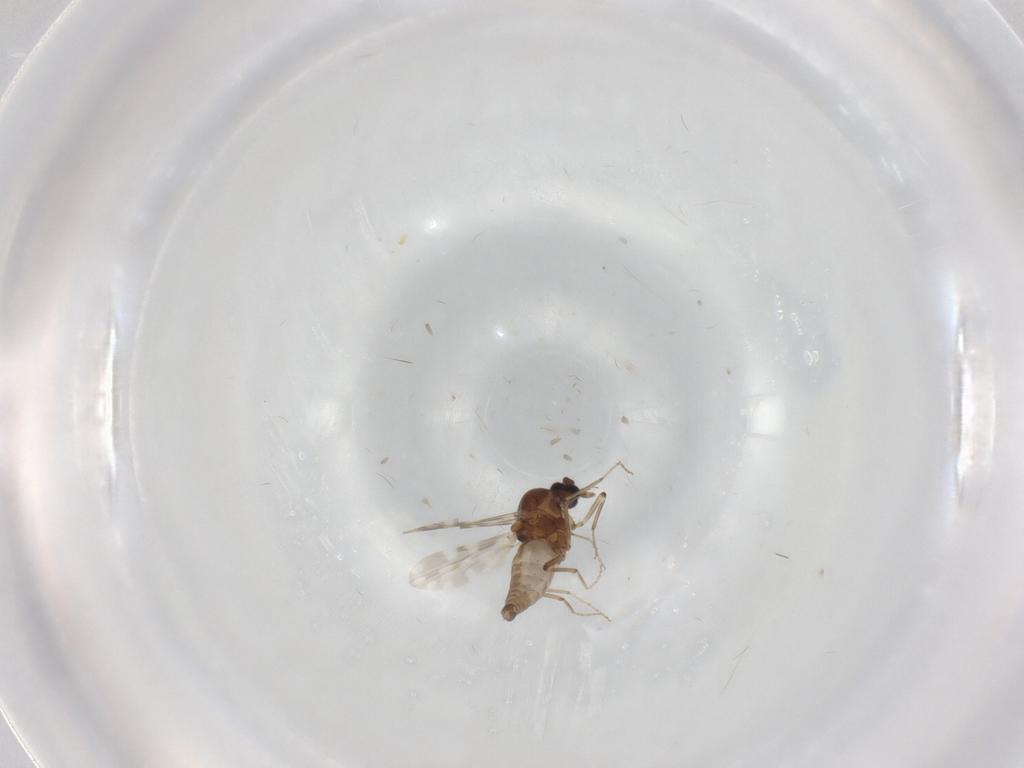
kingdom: Animalia
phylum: Arthropoda
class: Insecta
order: Diptera
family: Ceratopogonidae
